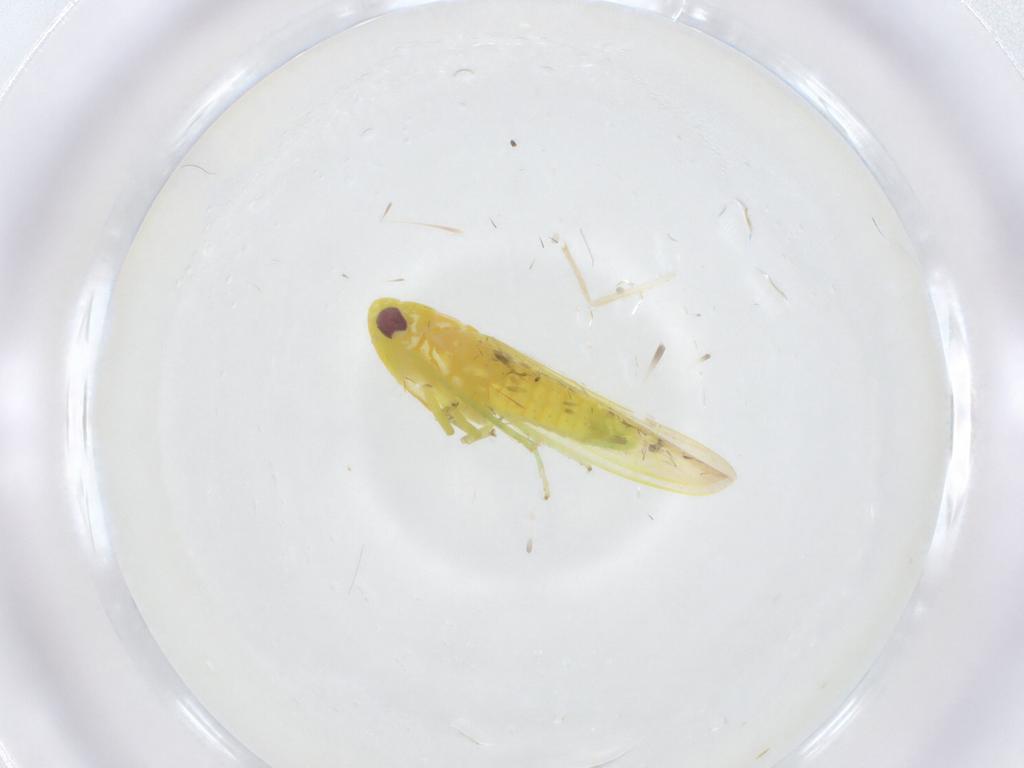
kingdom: Animalia
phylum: Arthropoda
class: Insecta
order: Hemiptera
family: Cicadellidae
